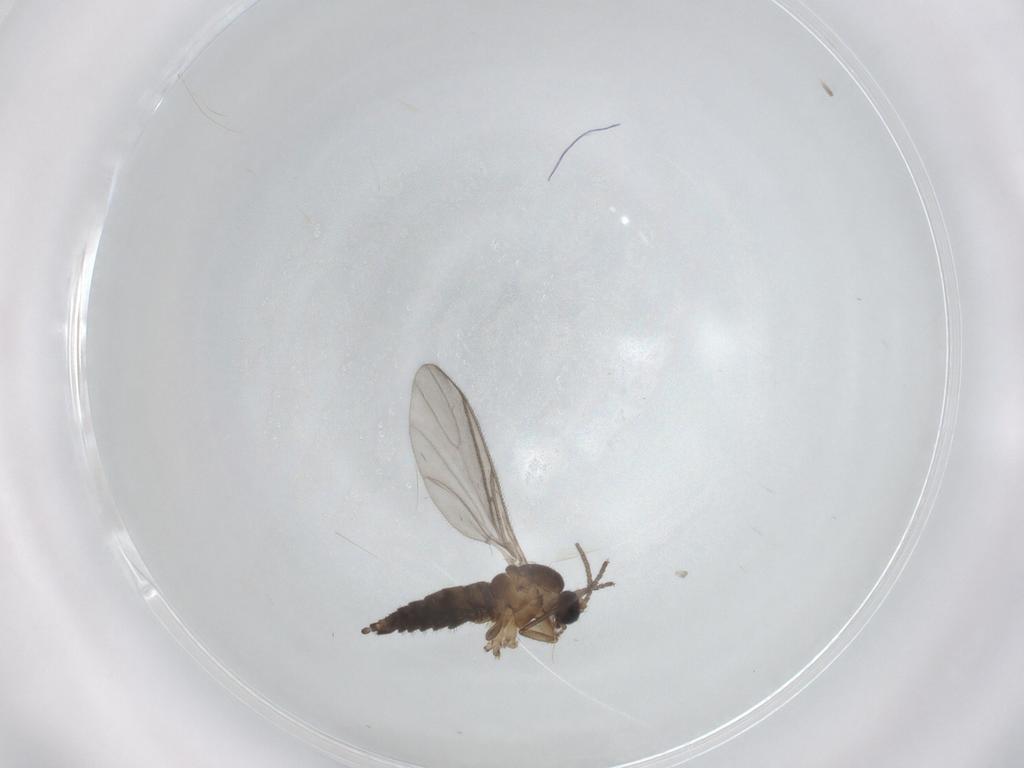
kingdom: Animalia
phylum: Arthropoda
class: Insecta
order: Diptera
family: Sciaridae
